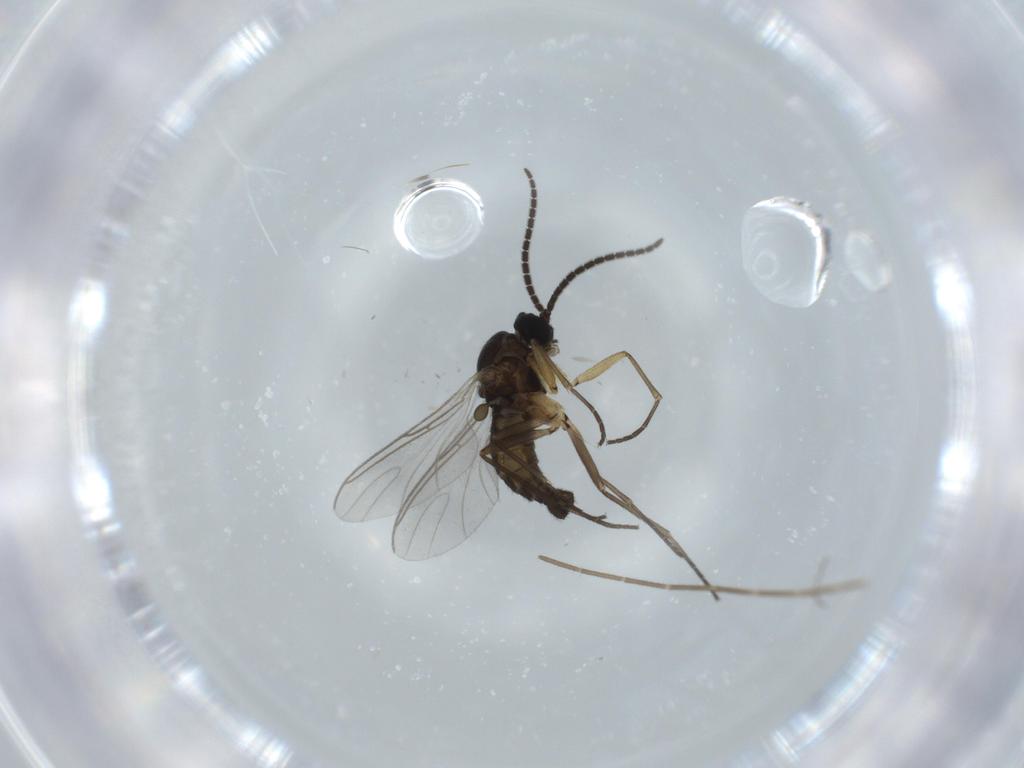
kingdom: Animalia
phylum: Arthropoda
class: Insecta
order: Diptera
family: Sciaridae
